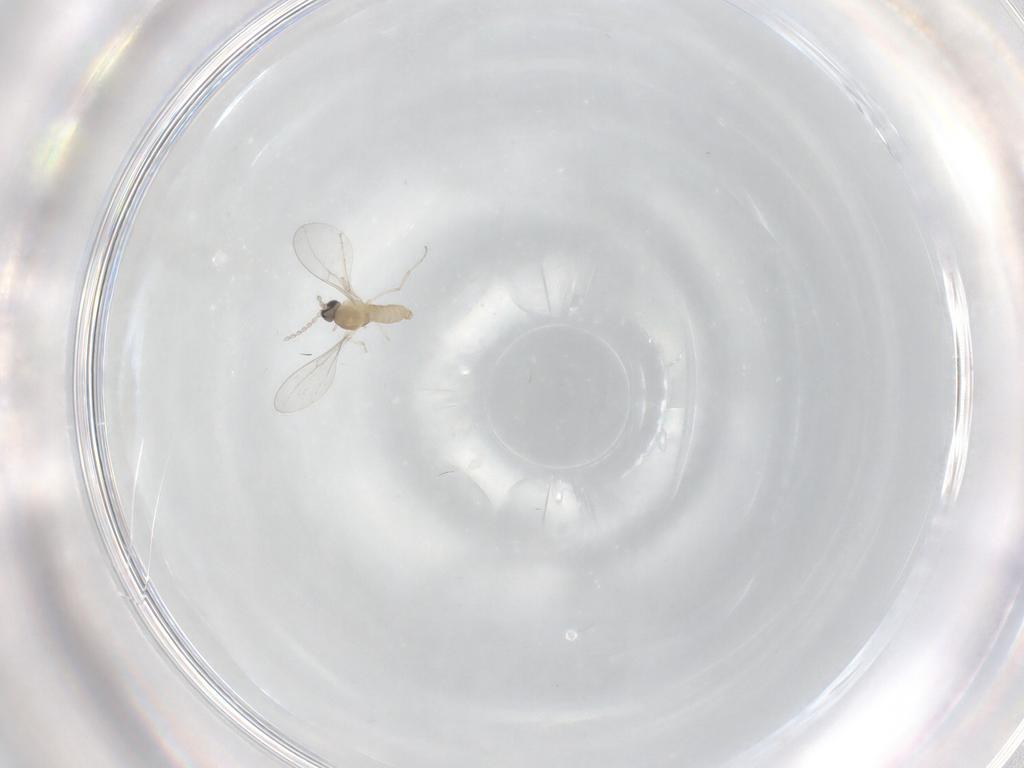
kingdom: Animalia
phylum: Arthropoda
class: Insecta
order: Diptera
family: Cecidomyiidae
